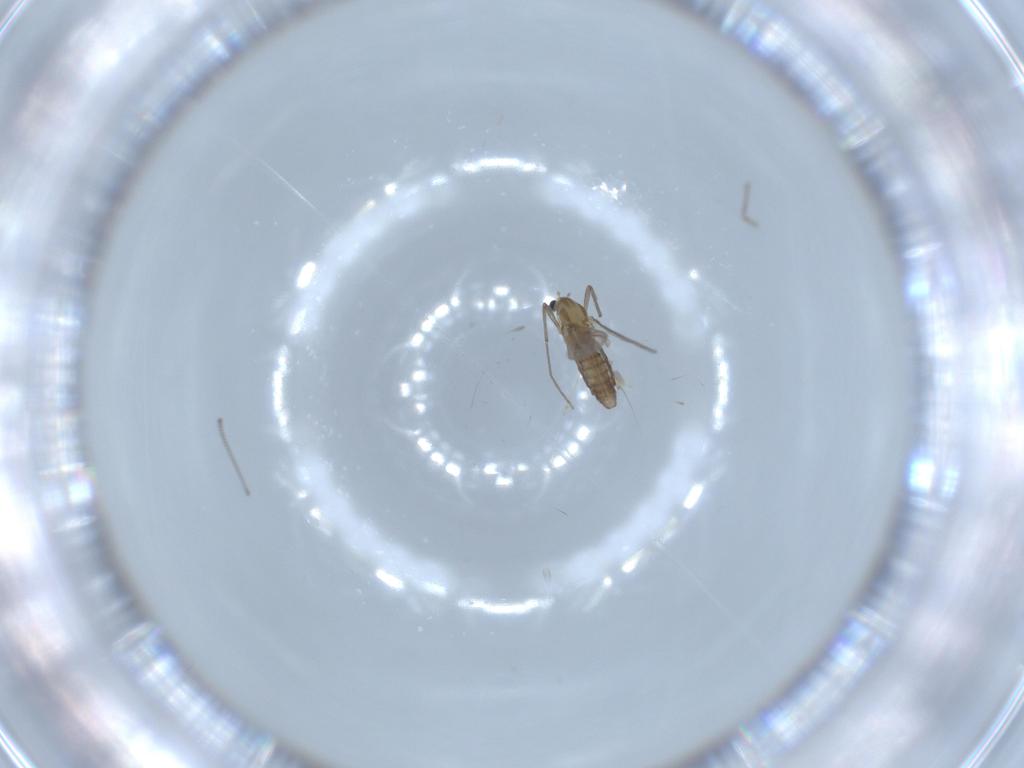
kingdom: Animalia
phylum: Arthropoda
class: Insecta
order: Diptera
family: Chironomidae
